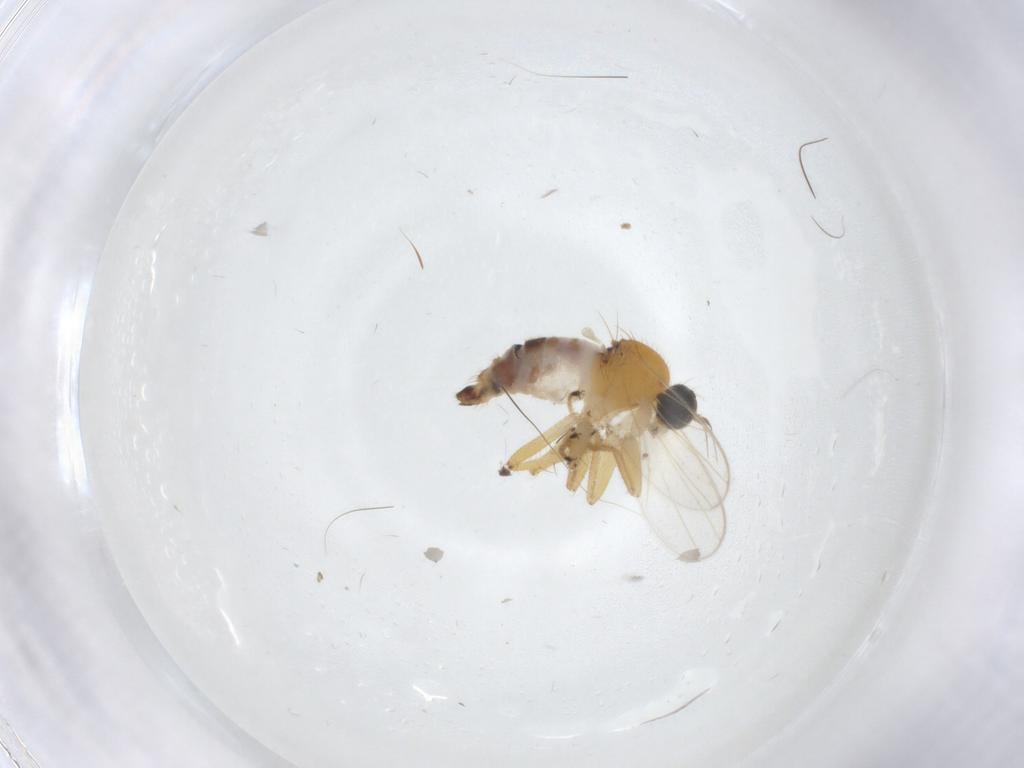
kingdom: Animalia
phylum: Arthropoda
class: Insecta
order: Diptera
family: Hybotidae
